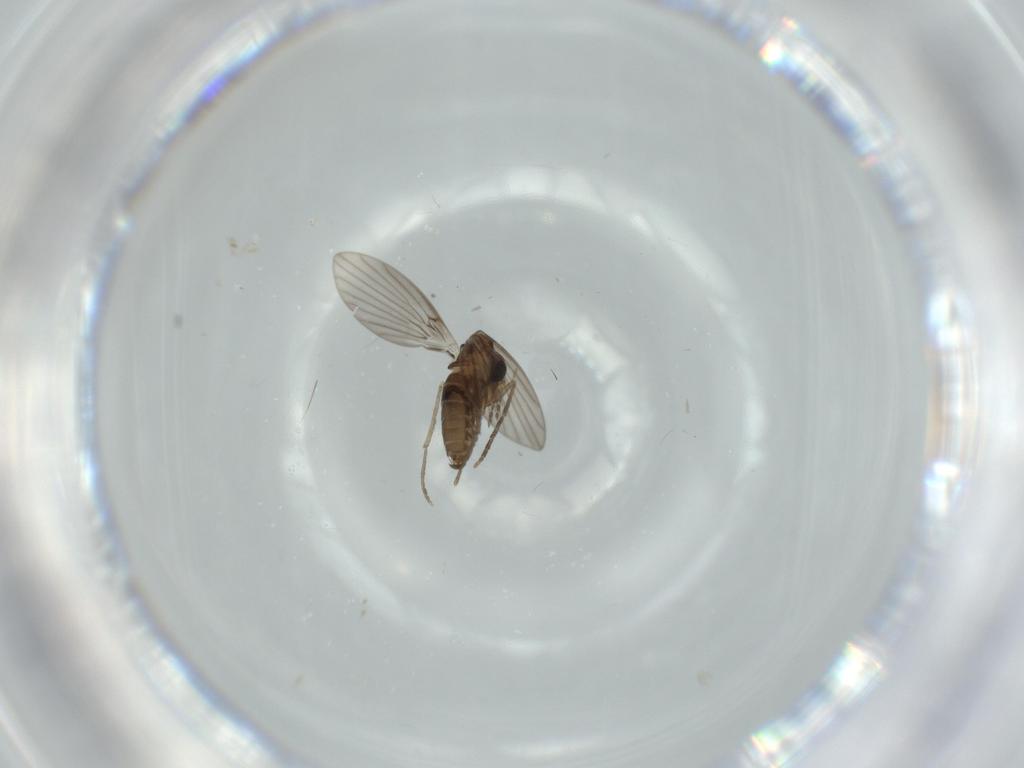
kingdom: Animalia
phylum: Arthropoda
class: Insecta
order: Diptera
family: Psychodidae
